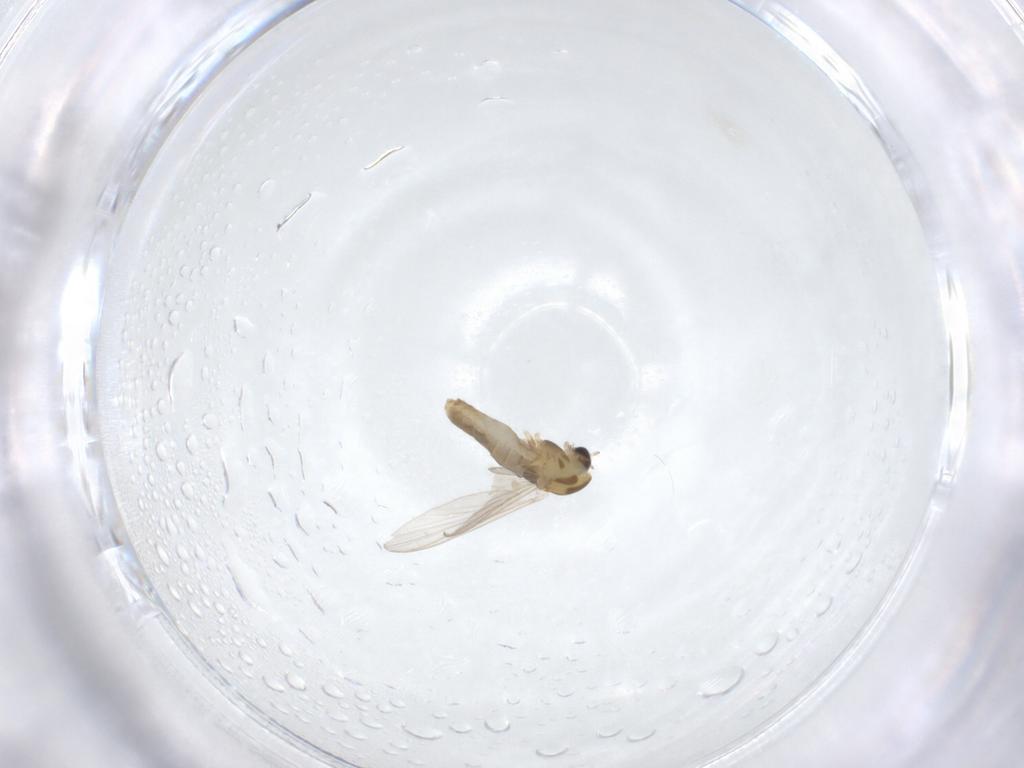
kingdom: Animalia
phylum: Arthropoda
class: Insecta
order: Diptera
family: Chironomidae
